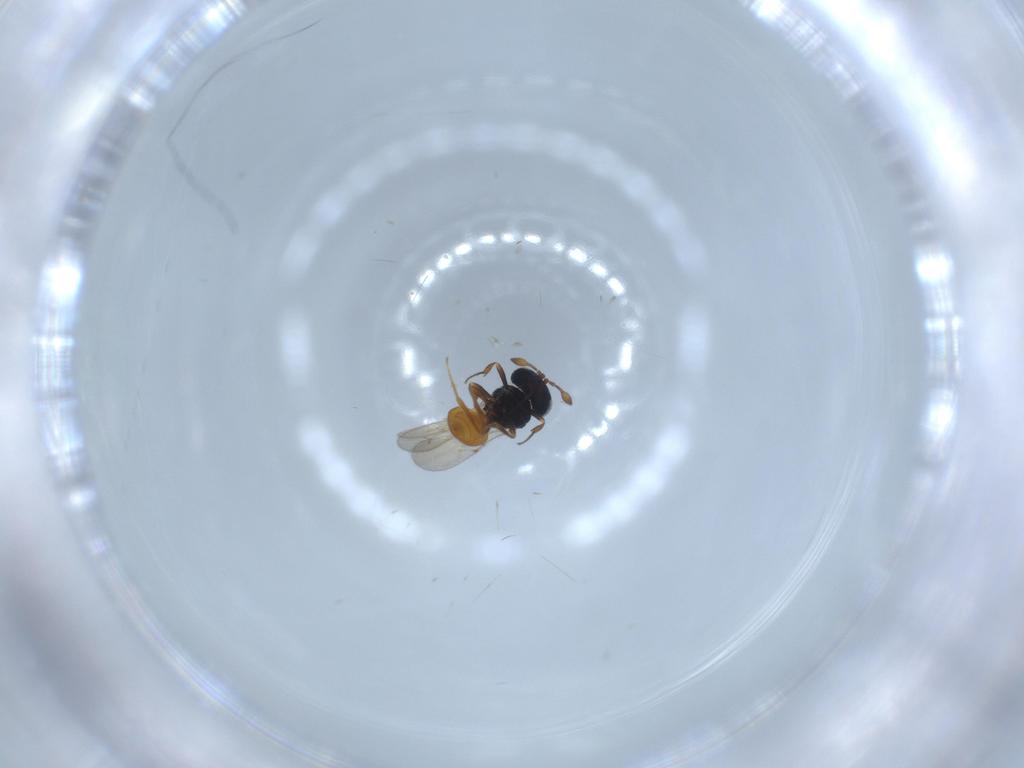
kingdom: Animalia
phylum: Arthropoda
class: Insecta
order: Hymenoptera
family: Scelionidae
